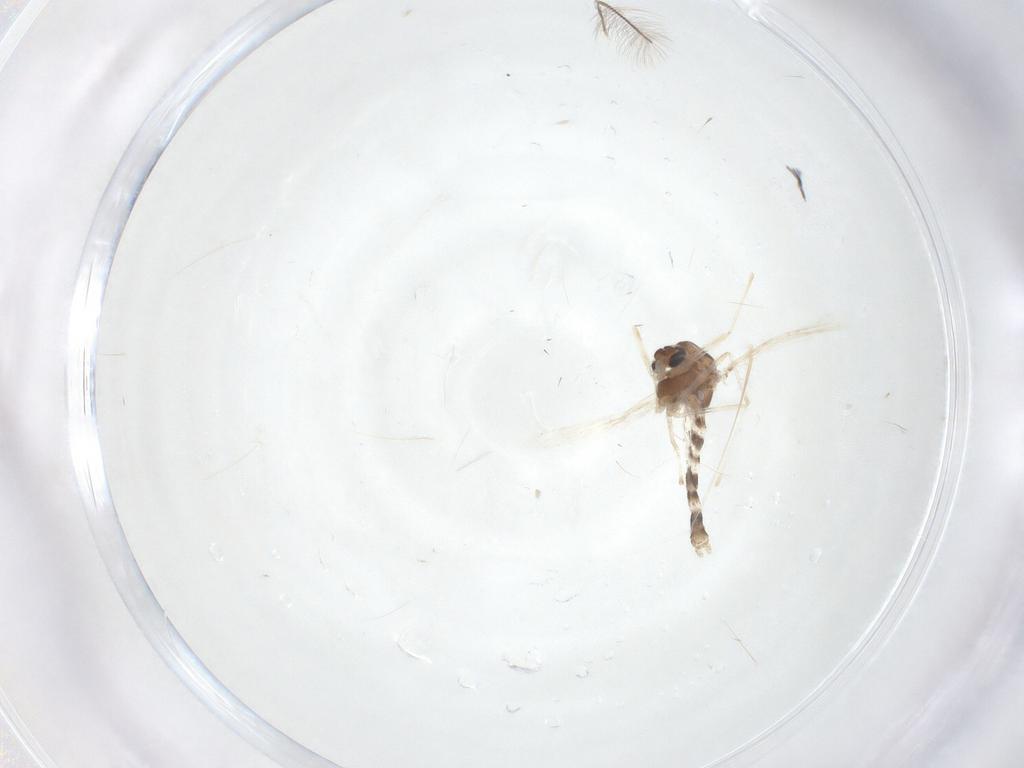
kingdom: Animalia
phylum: Arthropoda
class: Insecta
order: Diptera
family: Chironomidae
